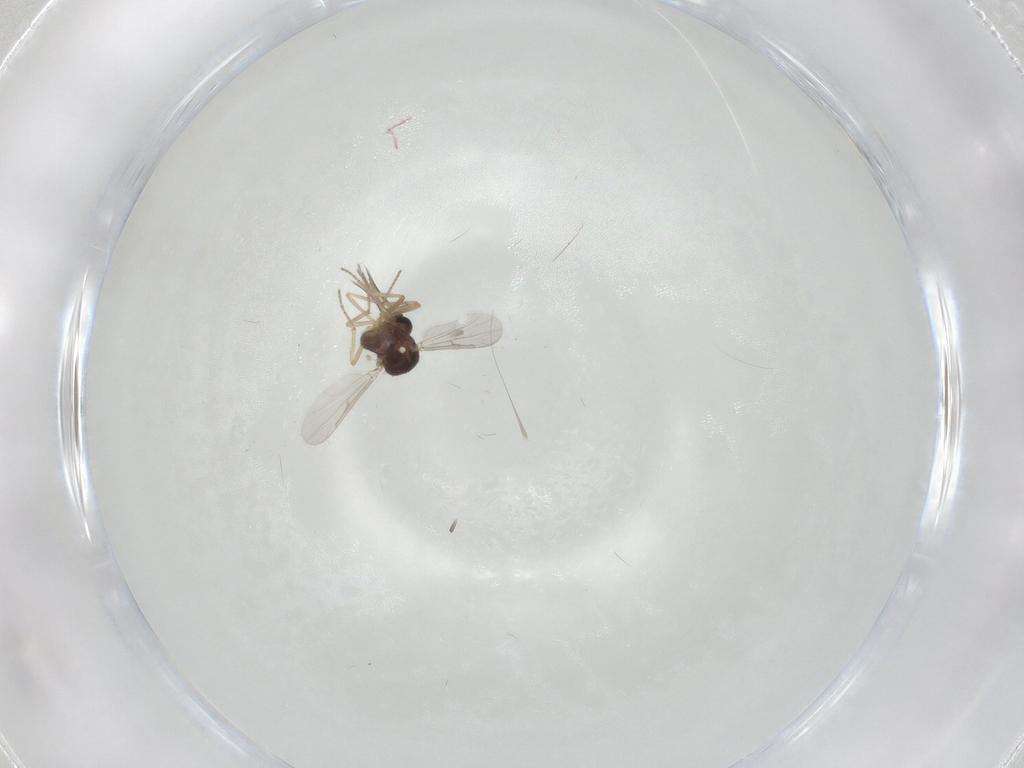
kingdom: Animalia
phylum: Arthropoda
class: Insecta
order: Diptera
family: Ceratopogonidae
